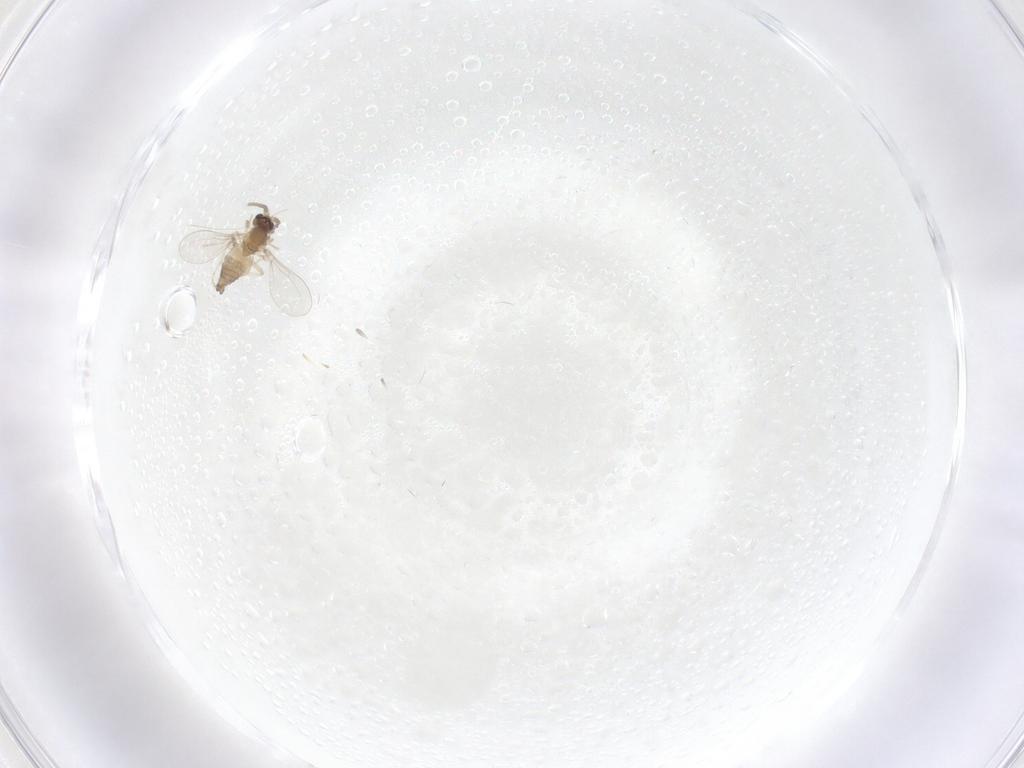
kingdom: Animalia
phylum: Arthropoda
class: Insecta
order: Diptera
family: Cecidomyiidae
